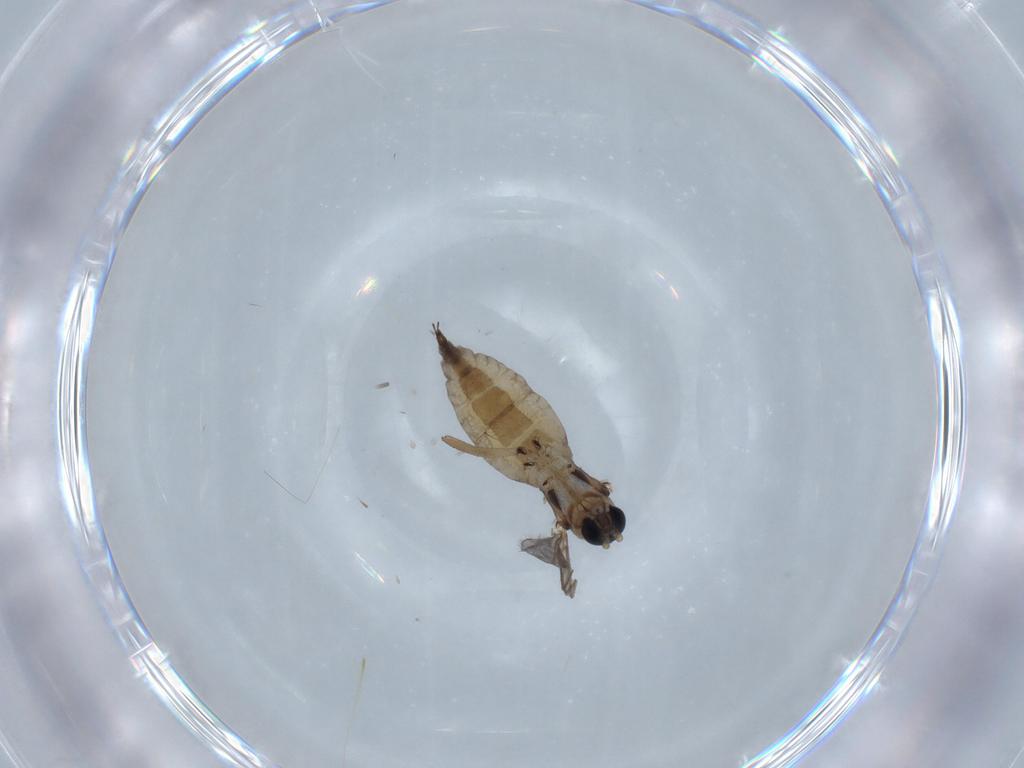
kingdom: Animalia
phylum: Arthropoda
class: Insecta
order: Diptera
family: Sciaridae
